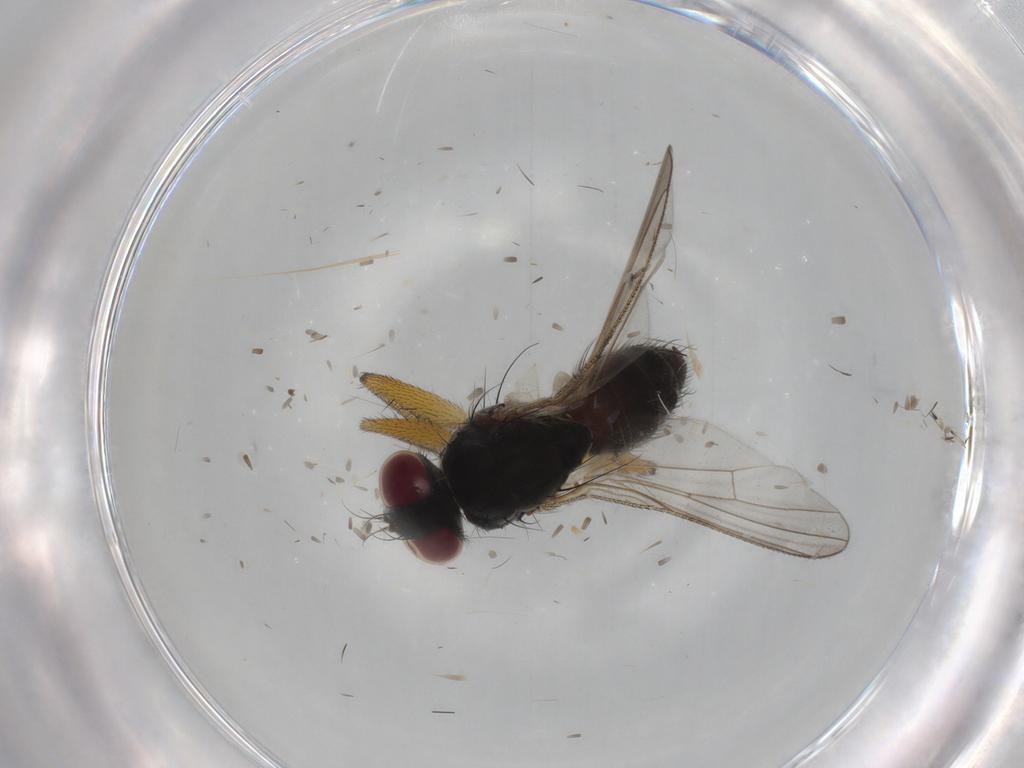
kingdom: Animalia
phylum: Arthropoda
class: Insecta
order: Diptera
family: Muscidae
